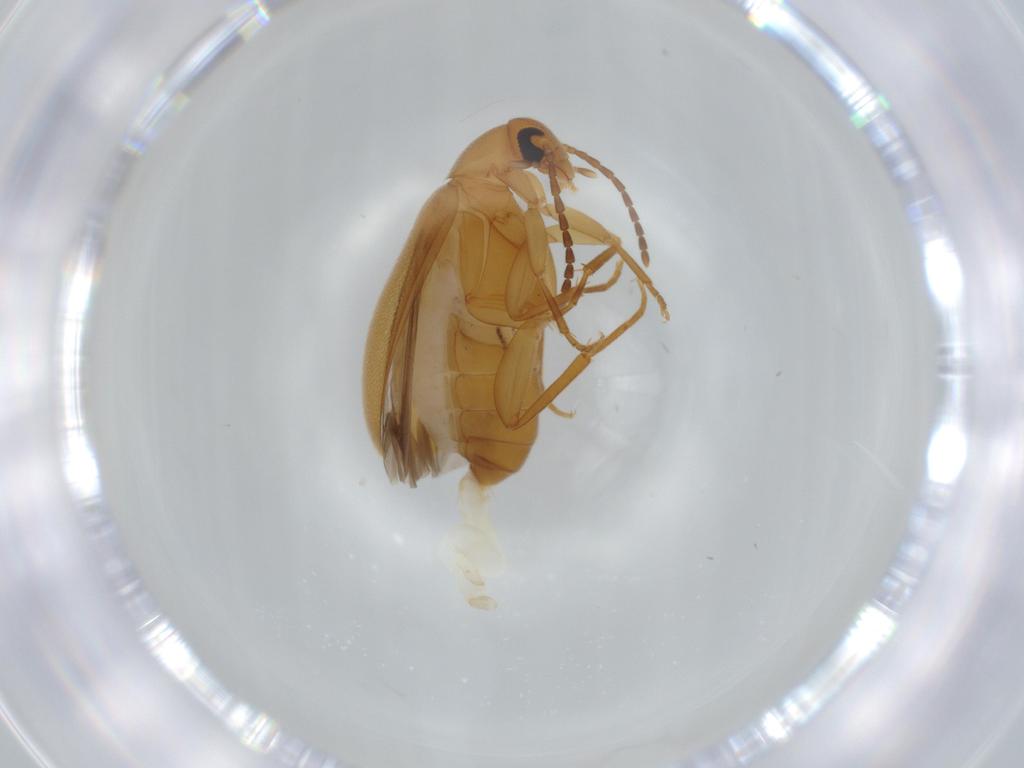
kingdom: Animalia
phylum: Arthropoda
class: Insecta
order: Coleoptera
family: Scraptiidae
